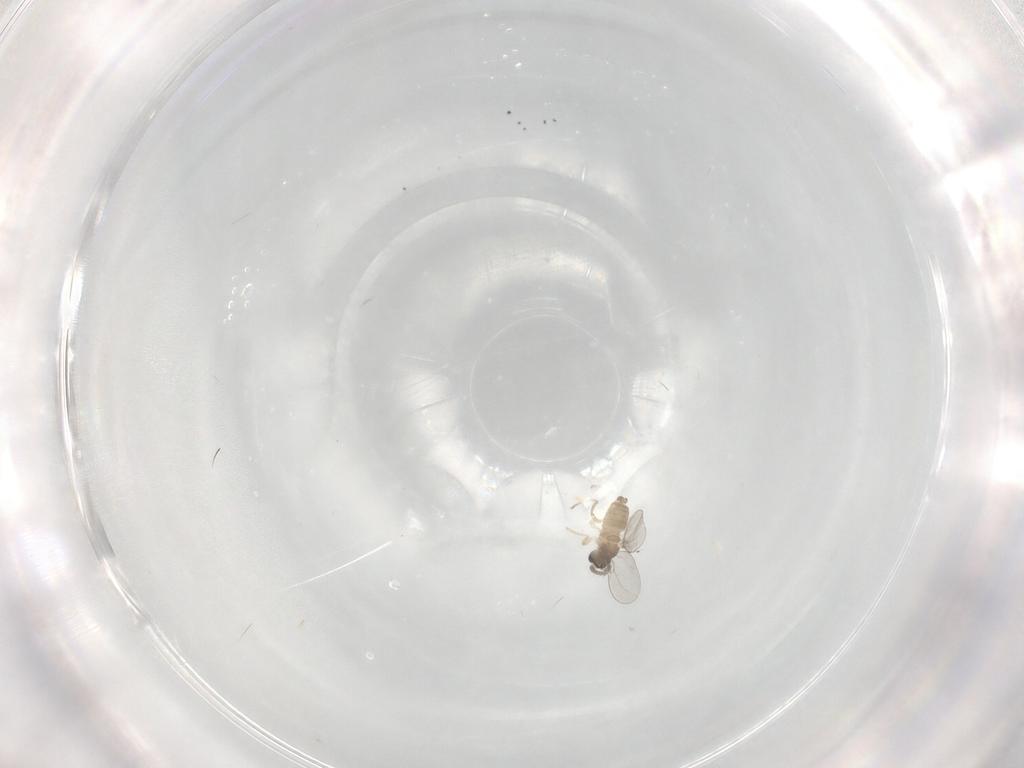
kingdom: Animalia
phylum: Arthropoda
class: Insecta
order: Diptera
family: Cecidomyiidae
